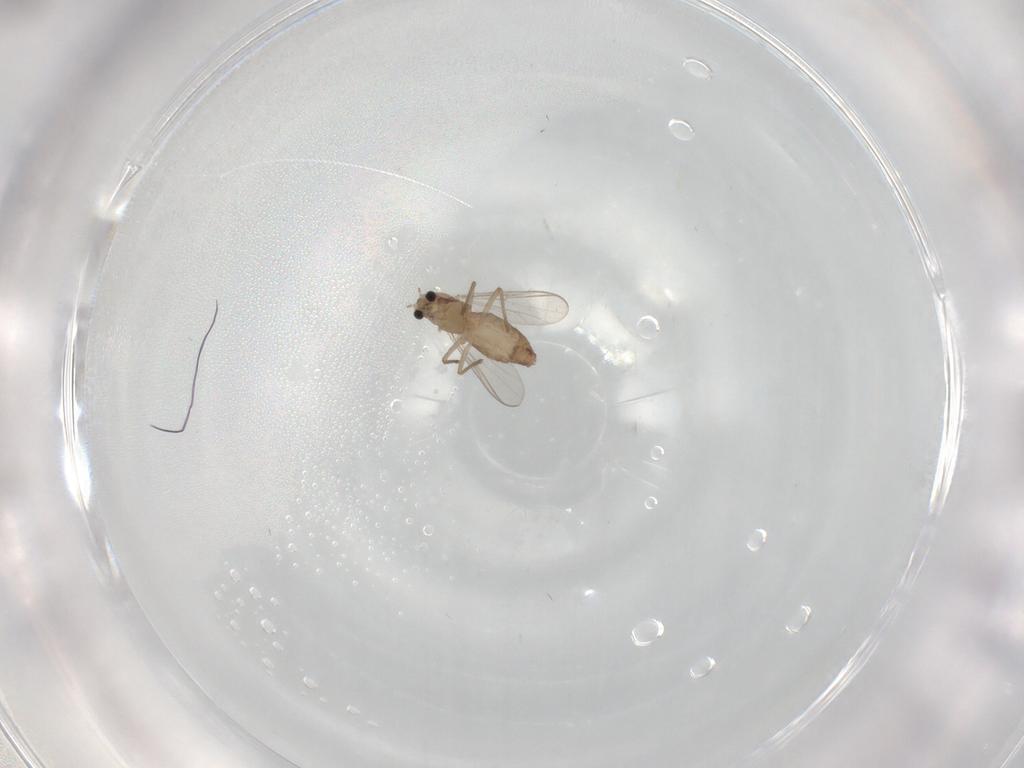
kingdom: Animalia
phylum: Arthropoda
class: Insecta
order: Diptera
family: Chironomidae
